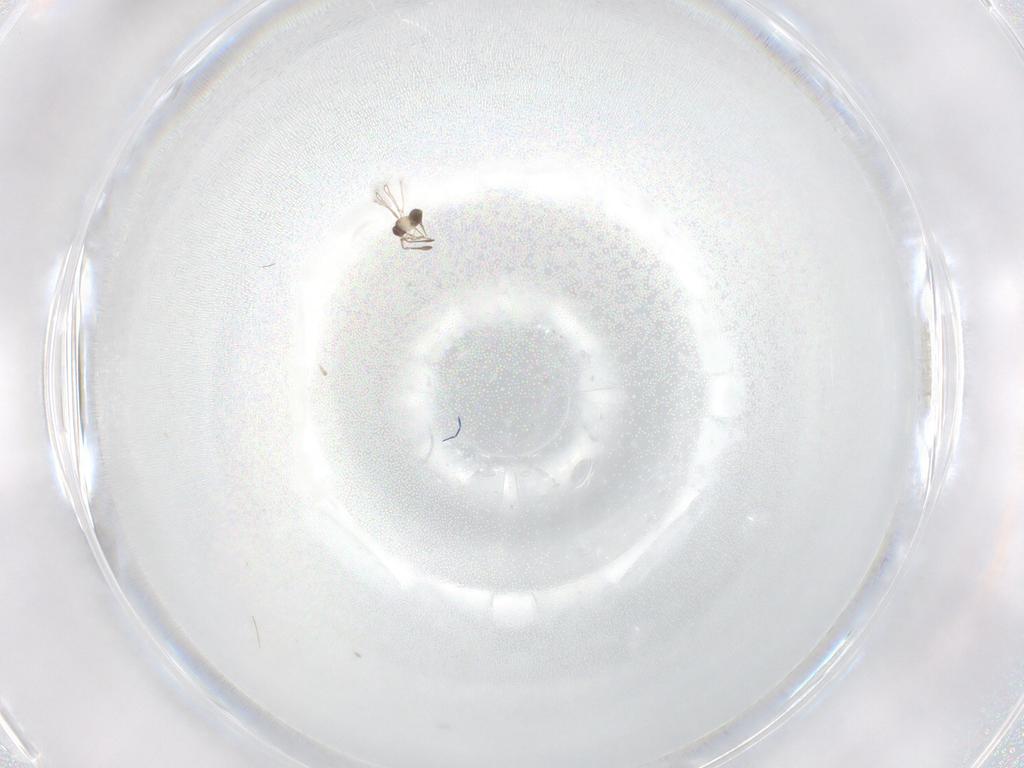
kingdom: Animalia
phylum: Arthropoda
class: Insecta
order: Hymenoptera
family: Mymaridae
